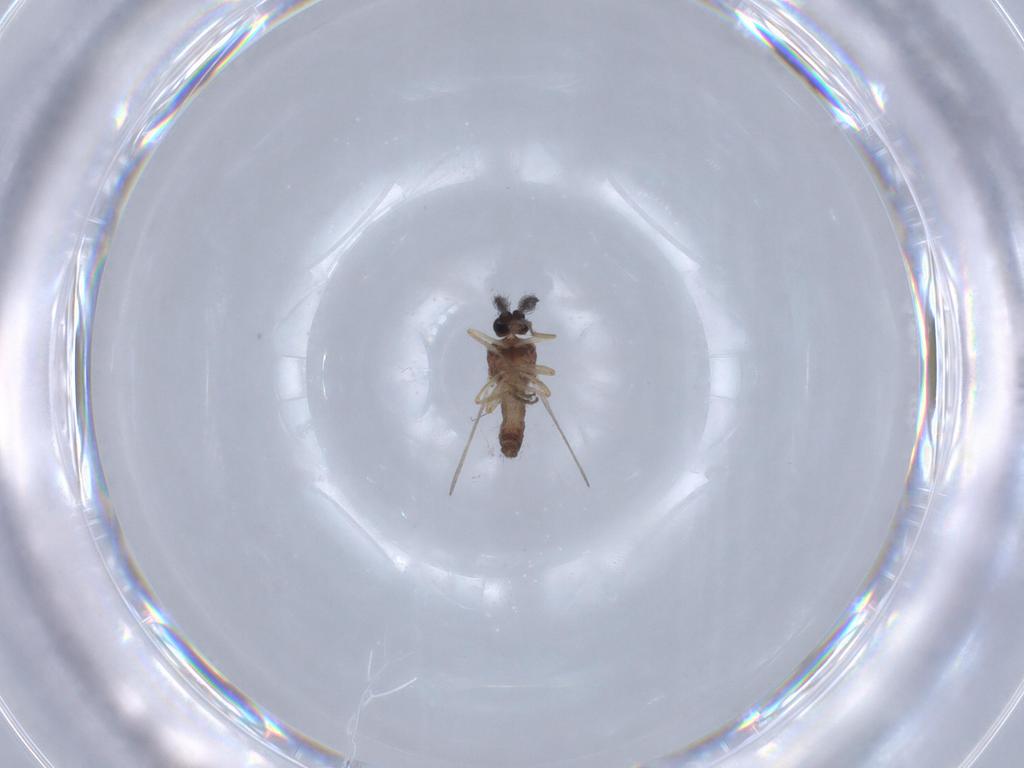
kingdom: Animalia
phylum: Arthropoda
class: Insecta
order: Diptera
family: Ceratopogonidae
